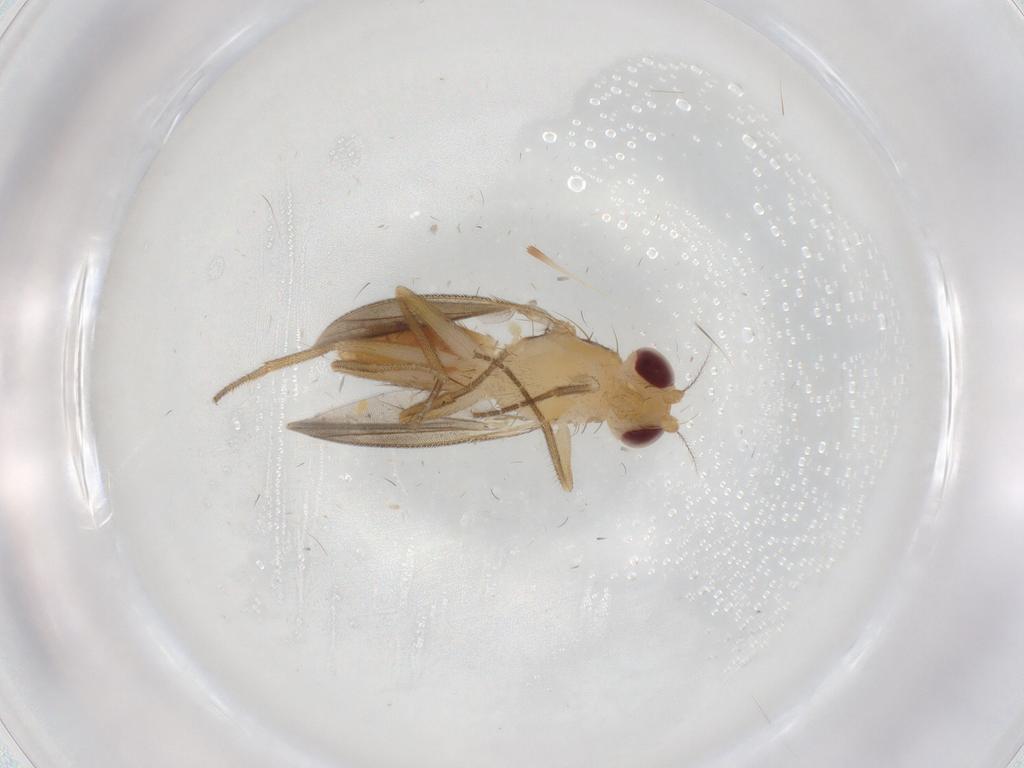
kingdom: Animalia
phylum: Arthropoda
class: Insecta
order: Diptera
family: Agromyzidae
